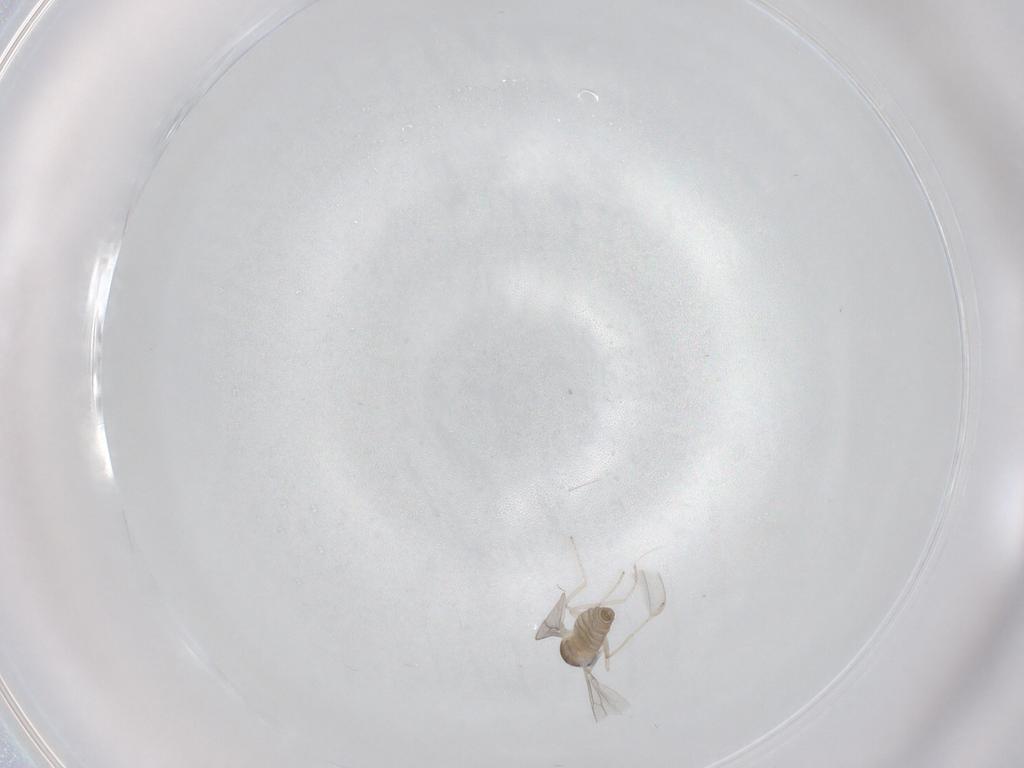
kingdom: Animalia
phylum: Arthropoda
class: Insecta
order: Diptera
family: Cecidomyiidae
